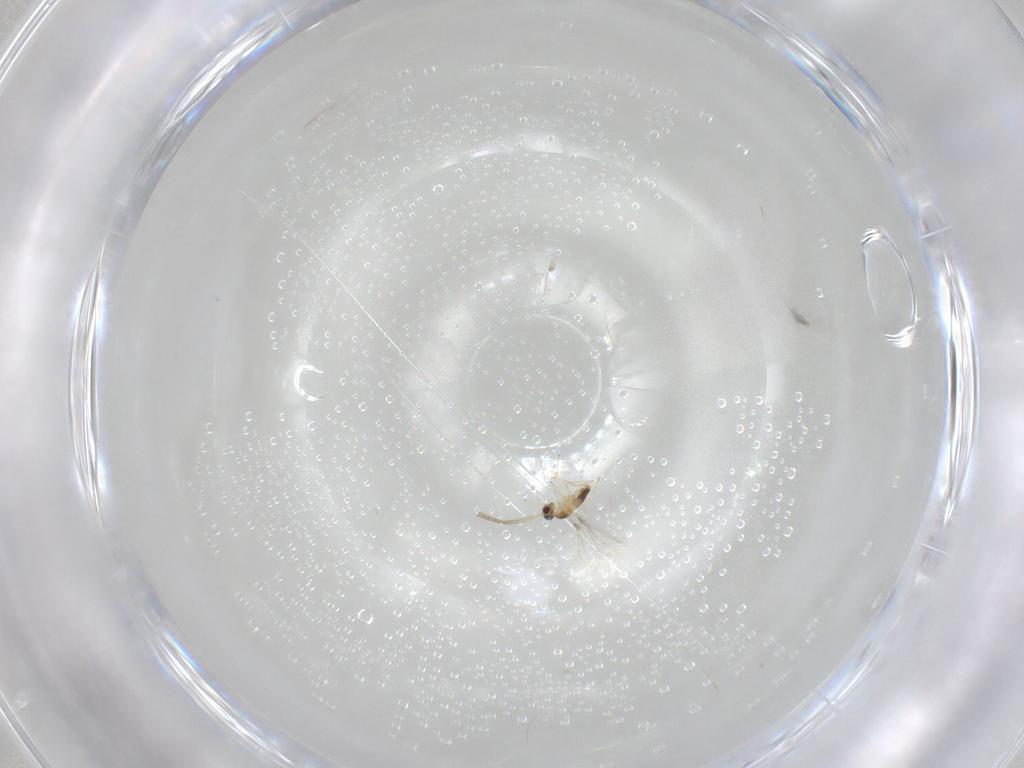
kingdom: Animalia
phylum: Arthropoda
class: Insecta
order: Hymenoptera
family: Mymaridae
